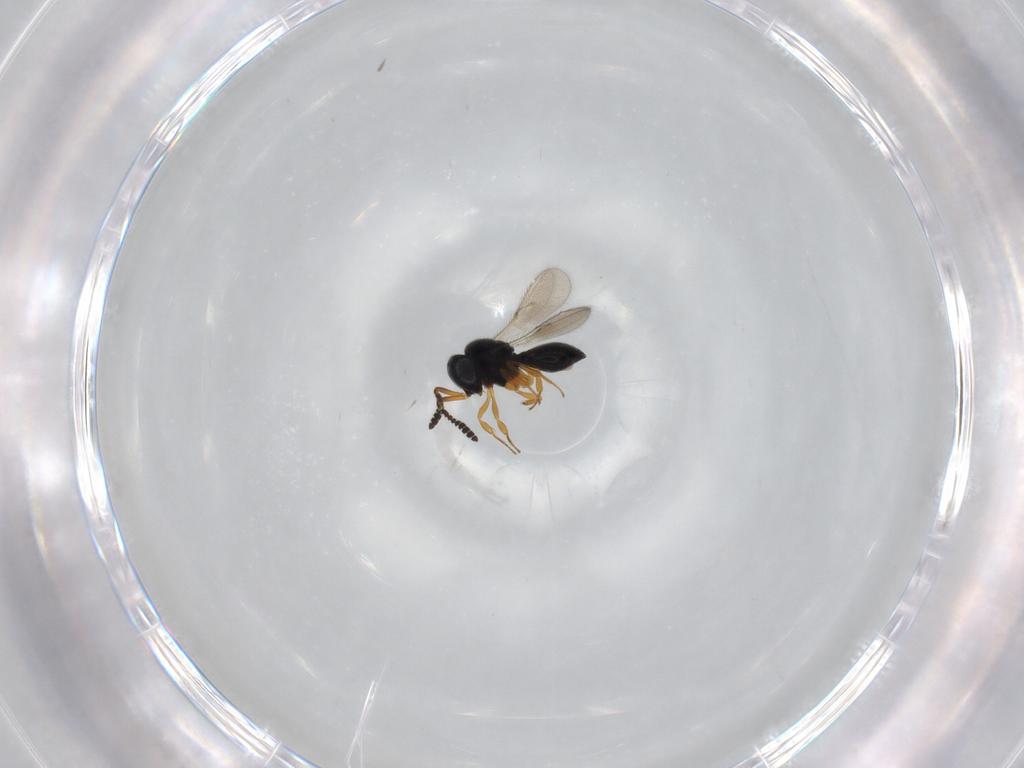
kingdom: Animalia
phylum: Arthropoda
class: Insecta
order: Hymenoptera
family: Scelionidae
